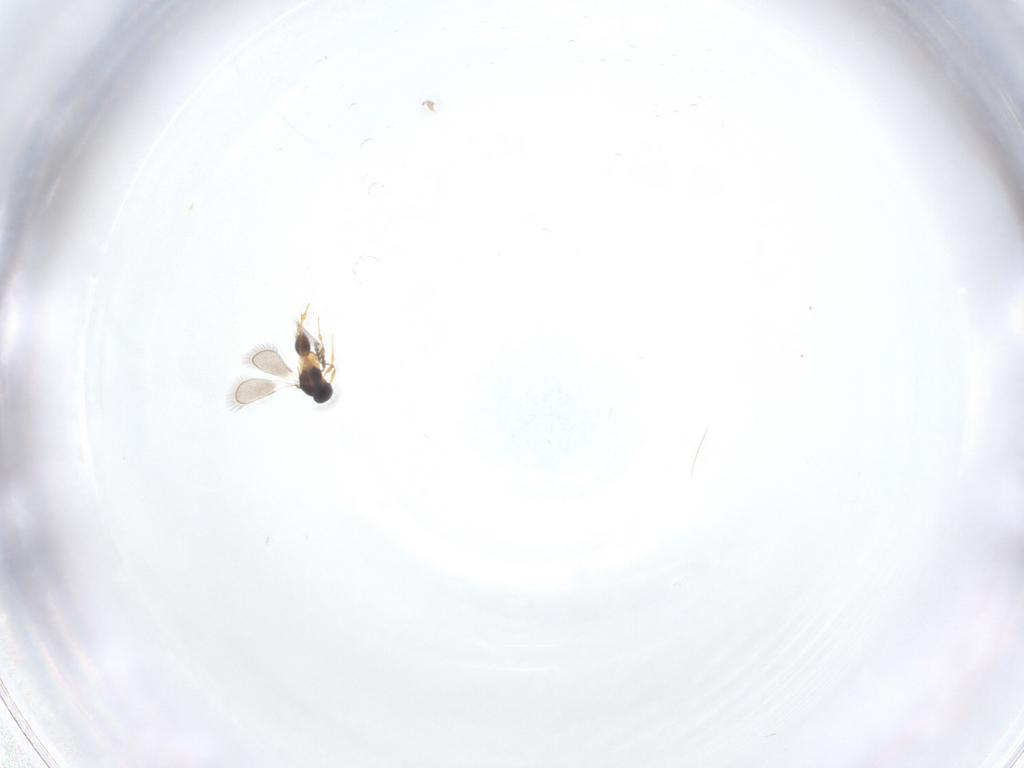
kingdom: Animalia
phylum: Arthropoda
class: Insecta
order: Hymenoptera
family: Platygastridae
